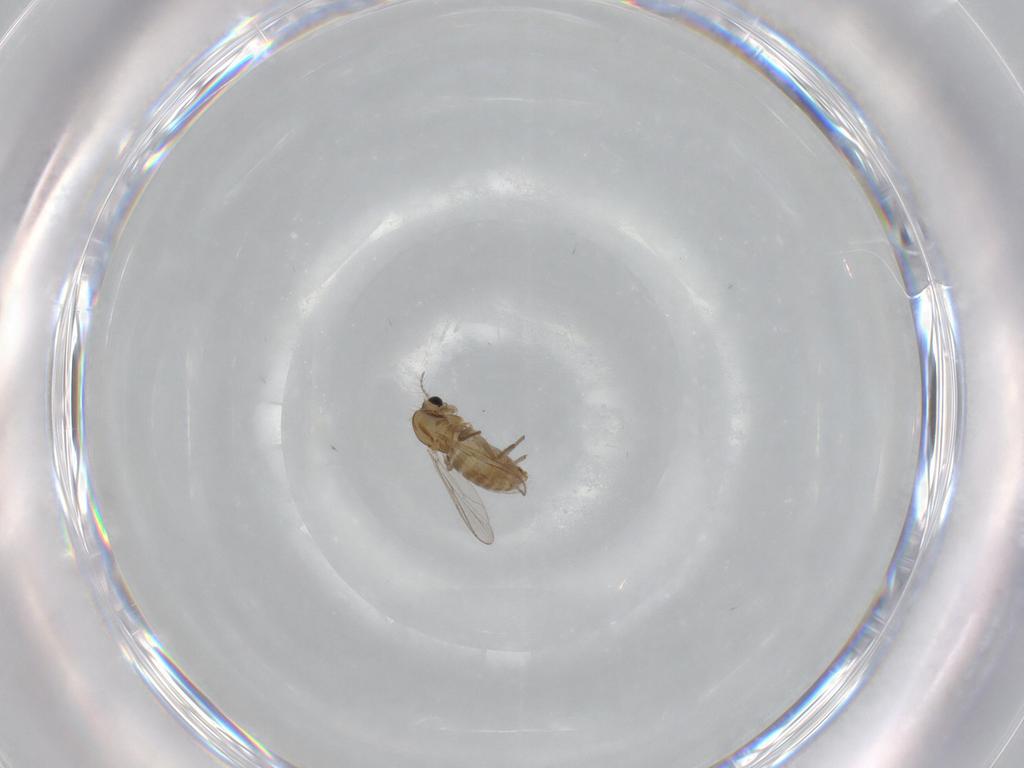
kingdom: Animalia
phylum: Arthropoda
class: Insecta
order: Diptera
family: Chironomidae
